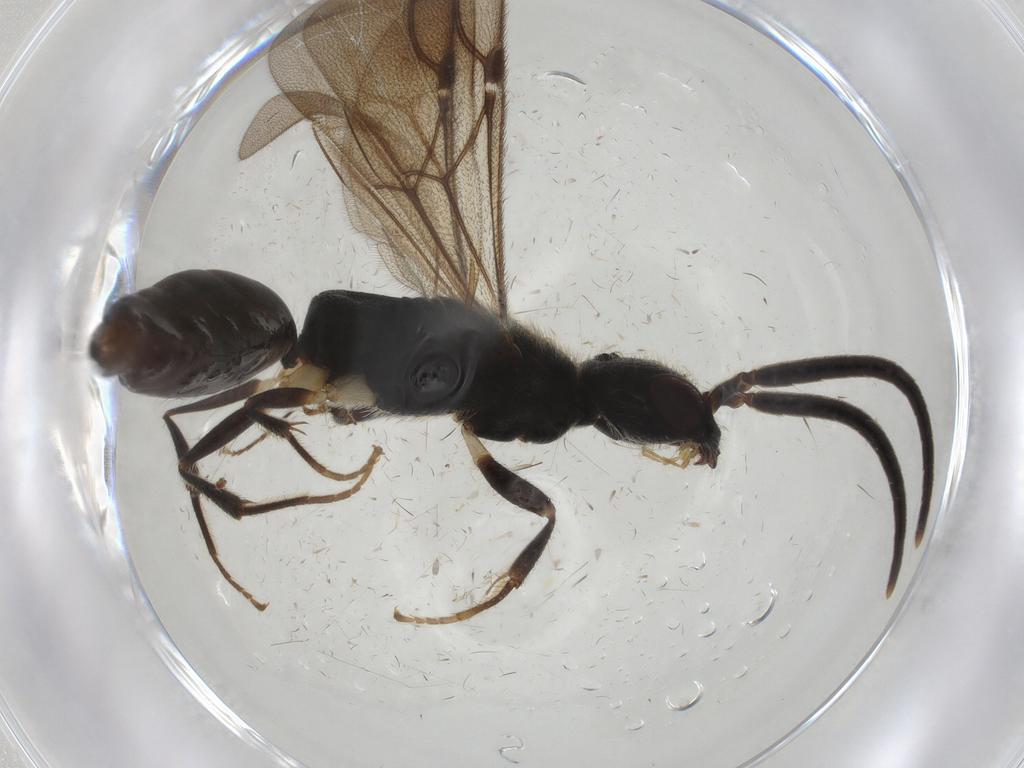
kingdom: Animalia
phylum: Arthropoda
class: Insecta
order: Hymenoptera
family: Bethylidae
